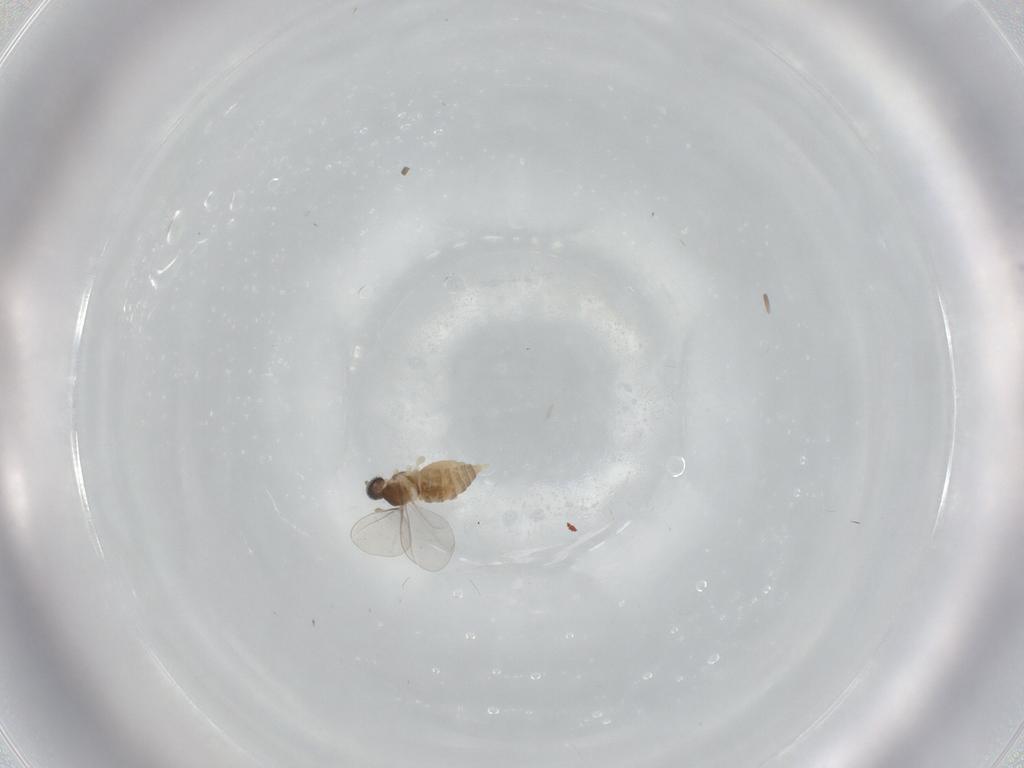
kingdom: Animalia
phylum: Arthropoda
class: Insecta
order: Diptera
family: Cecidomyiidae
